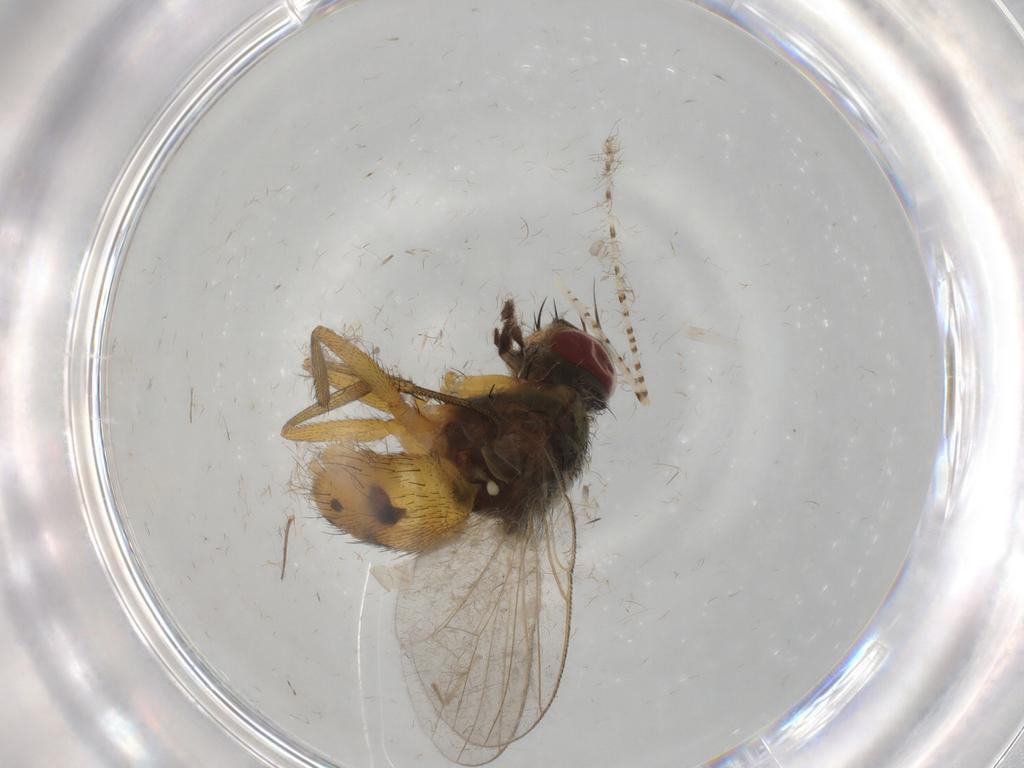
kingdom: Animalia
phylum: Arthropoda
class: Insecta
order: Diptera
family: Muscidae
